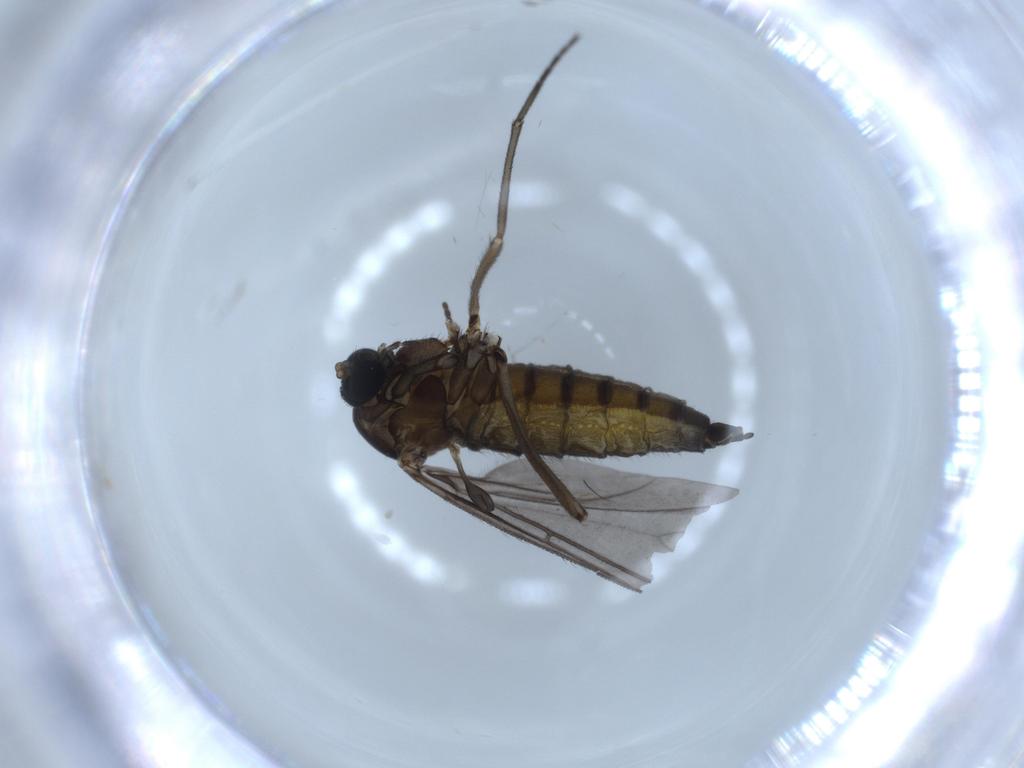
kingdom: Animalia
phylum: Arthropoda
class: Insecta
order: Diptera
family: Sciaridae
